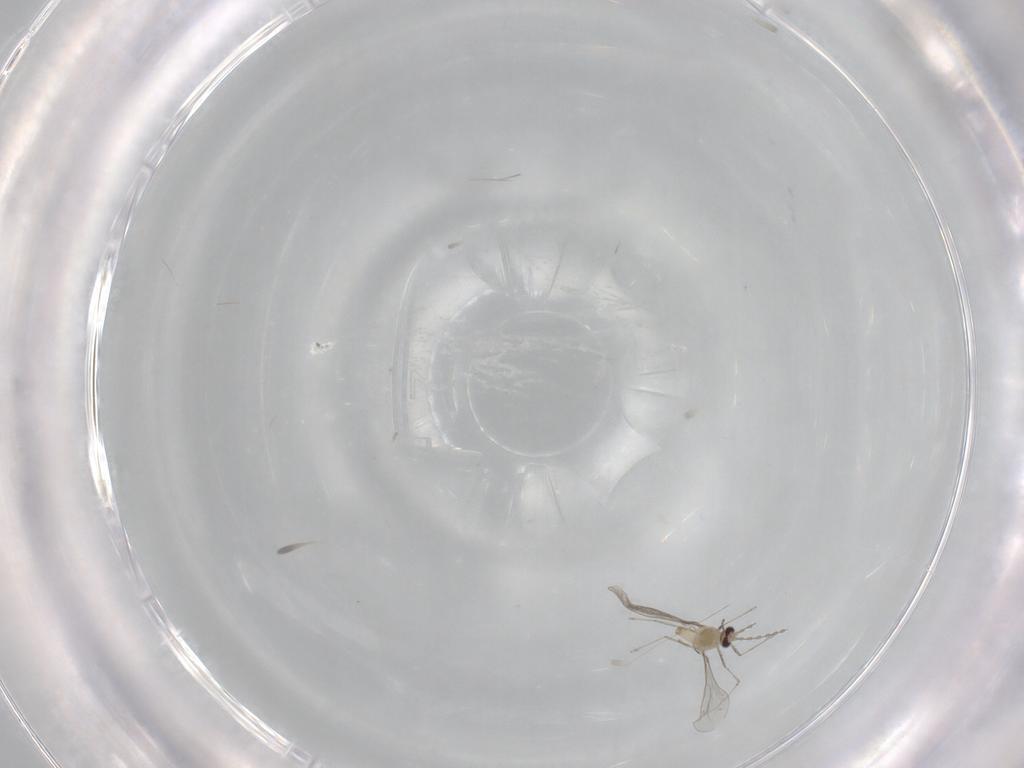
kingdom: Animalia
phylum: Arthropoda
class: Insecta
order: Diptera
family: Cecidomyiidae
